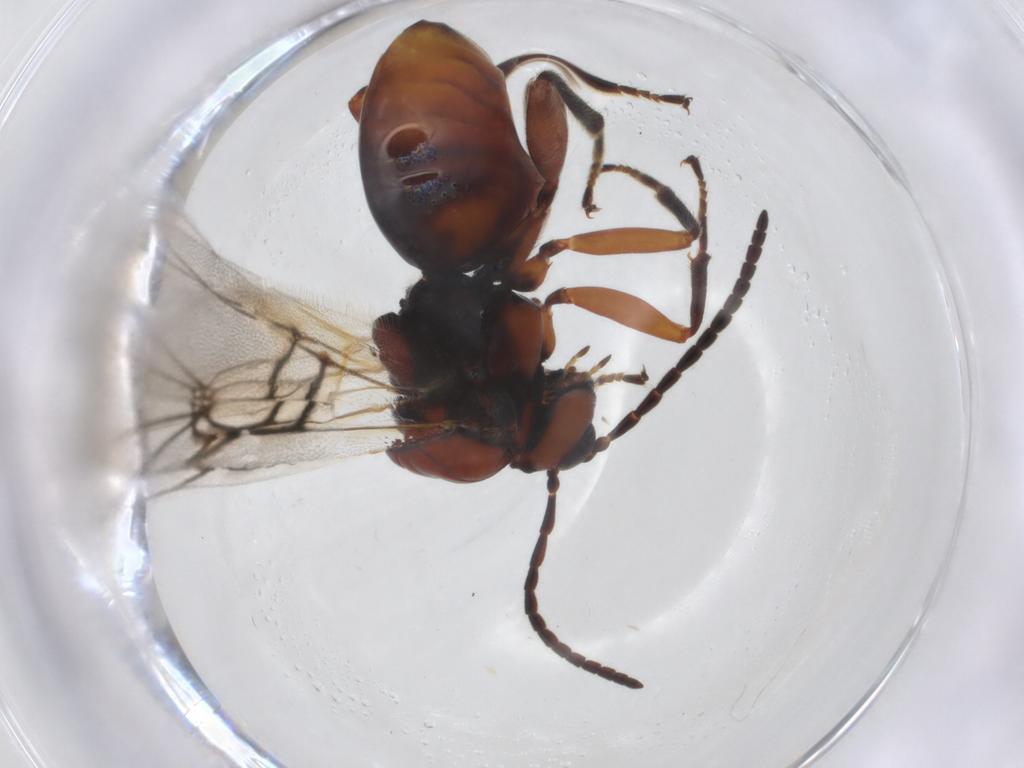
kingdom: Animalia
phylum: Arthropoda
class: Insecta
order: Hymenoptera
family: Cynipidae
